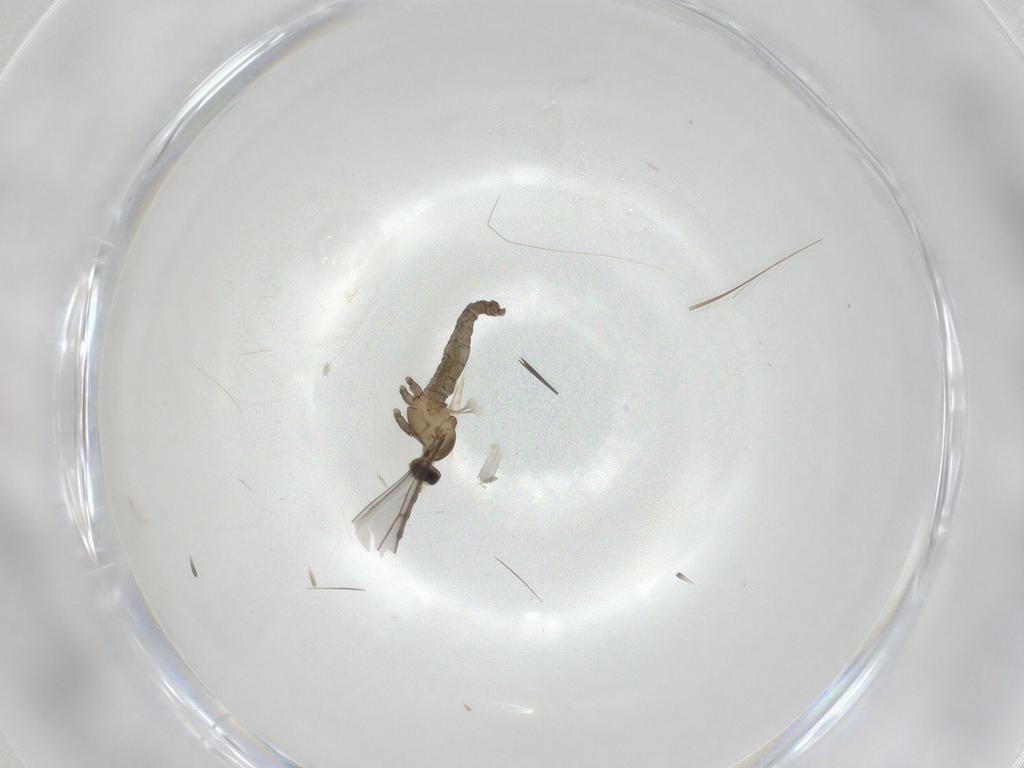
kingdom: Animalia
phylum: Arthropoda
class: Insecta
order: Diptera
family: Cecidomyiidae
